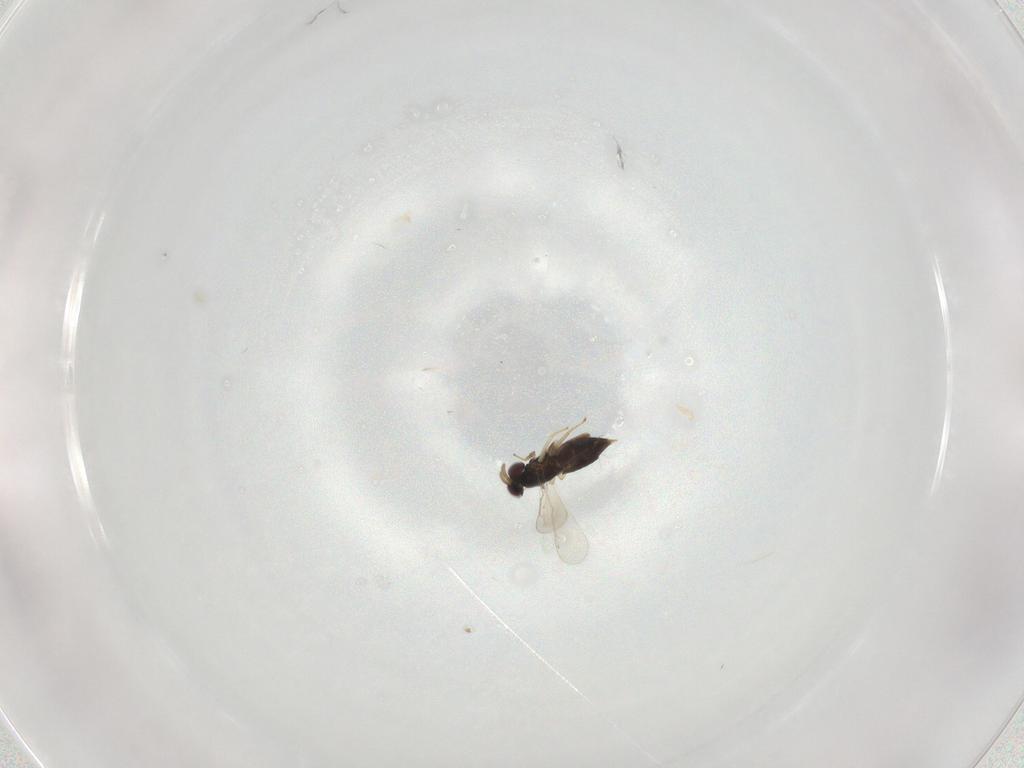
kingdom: Animalia
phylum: Arthropoda
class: Insecta
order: Hymenoptera
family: Aphelinidae
